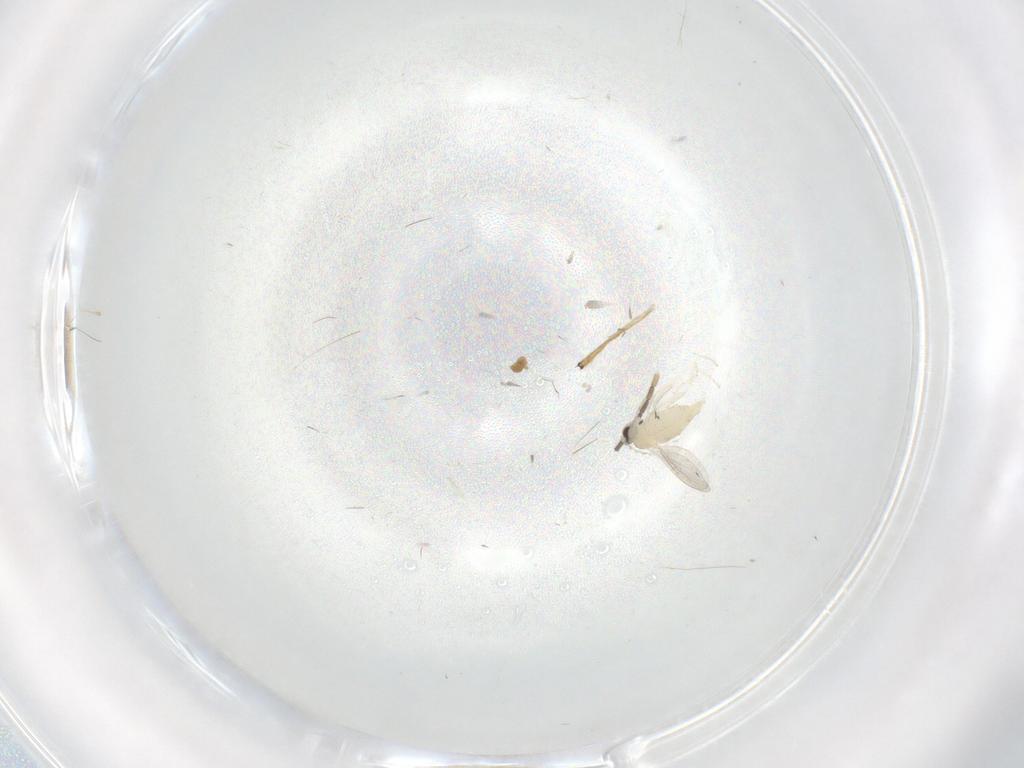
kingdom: Animalia
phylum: Arthropoda
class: Insecta
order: Diptera
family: Cecidomyiidae
